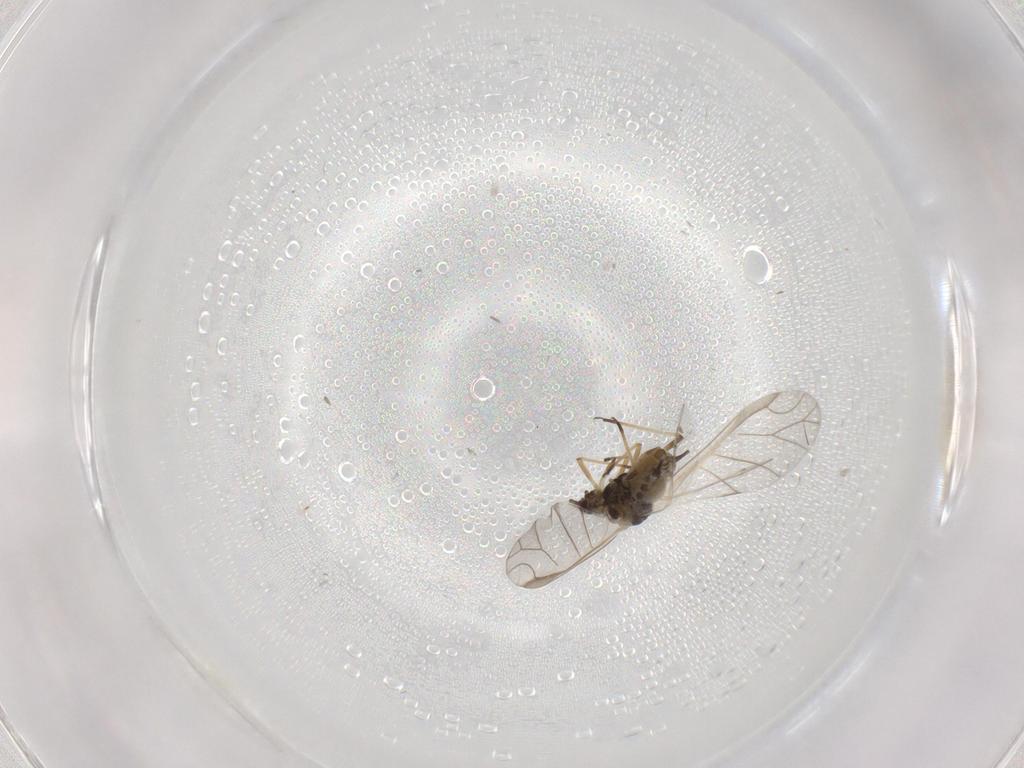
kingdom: Animalia
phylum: Arthropoda
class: Insecta
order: Hemiptera
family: Aphididae
